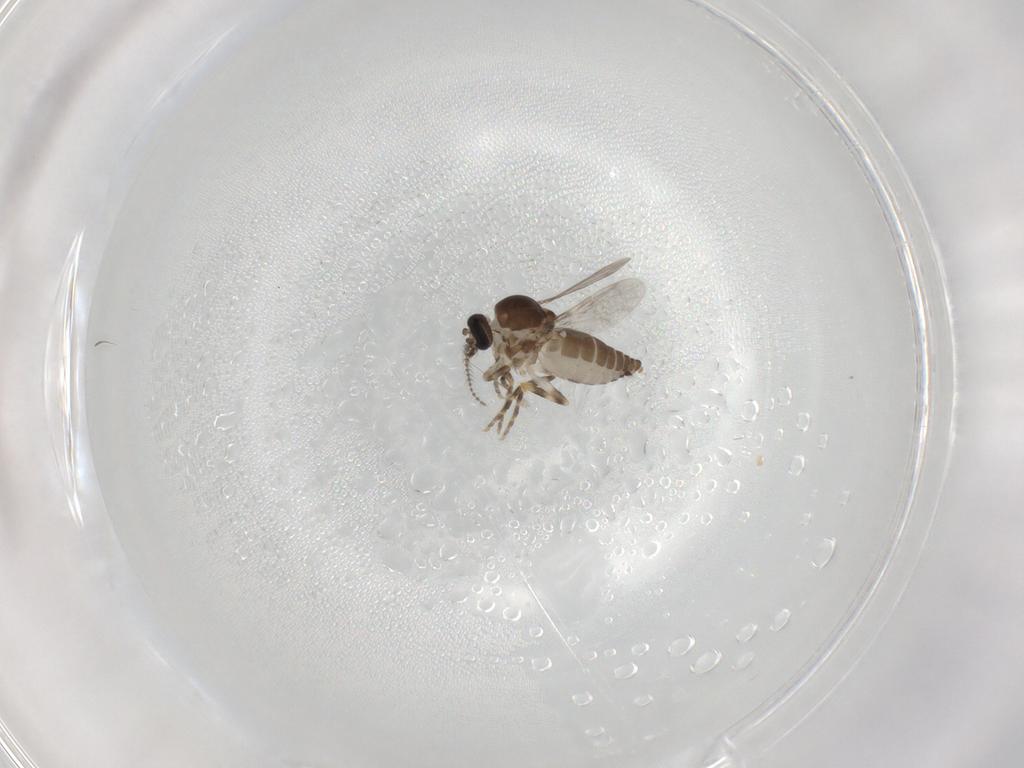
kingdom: Animalia
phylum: Arthropoda
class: Insecta
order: Diptera
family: Ceratopogonidae
